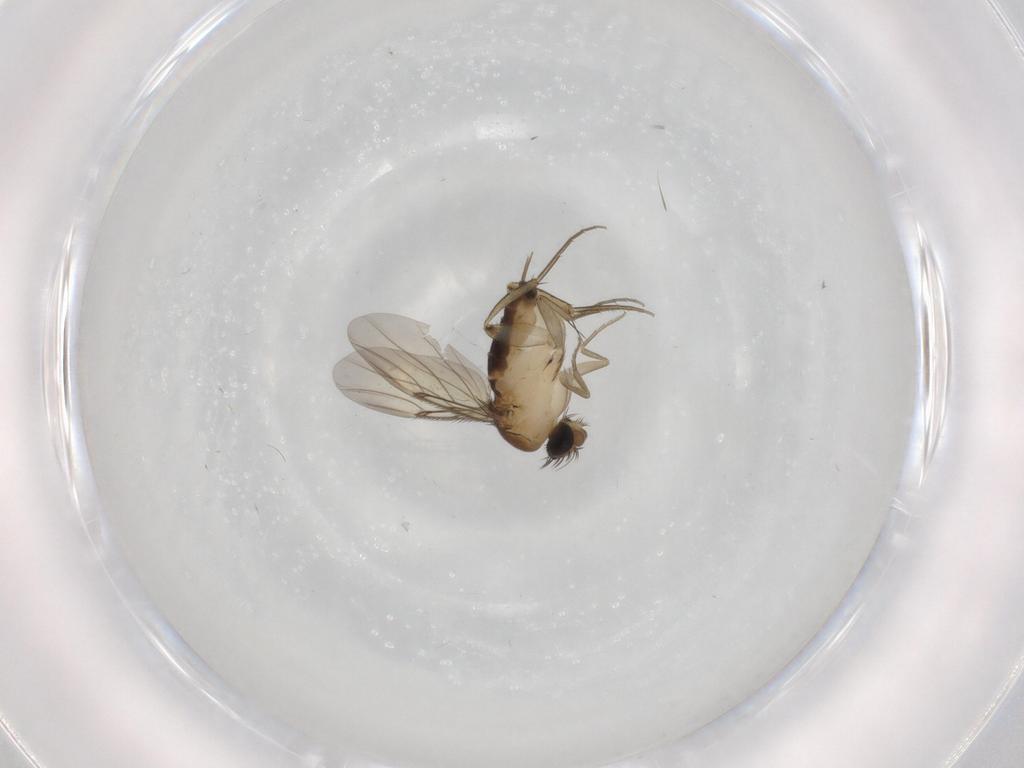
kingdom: Animalia
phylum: Arthropoda
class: Insecta
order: Diptera
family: Phoridae
